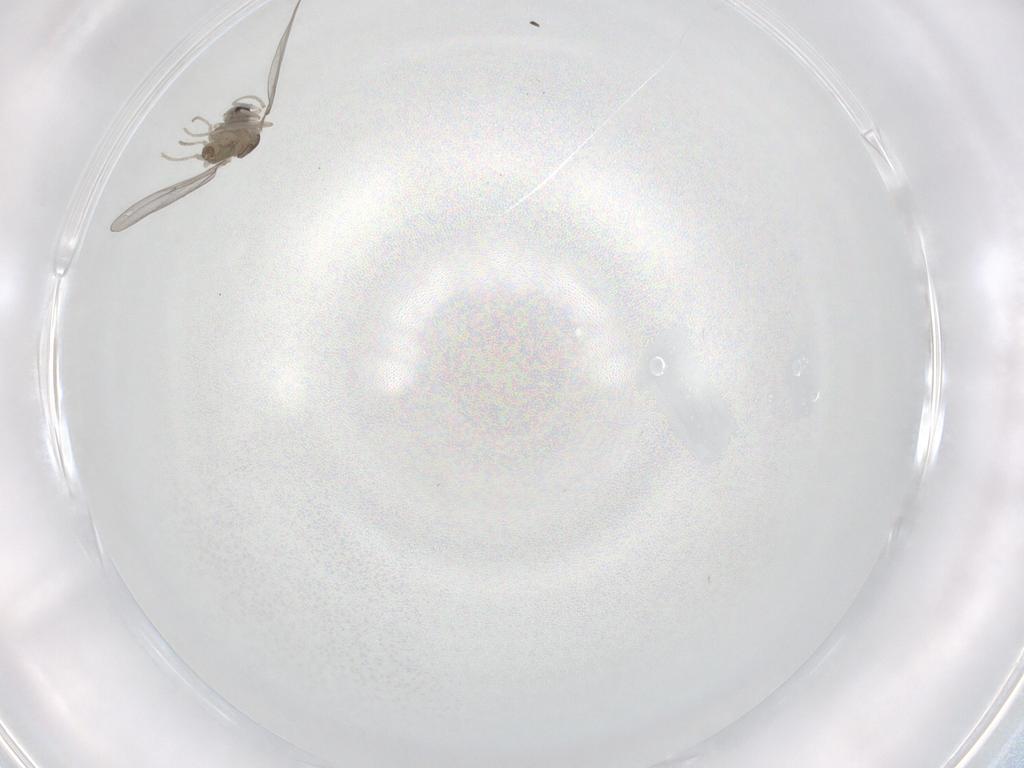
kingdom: Animalia
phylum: Arthropoda
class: Insecta
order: Diptera
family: Cecidomyiidae
